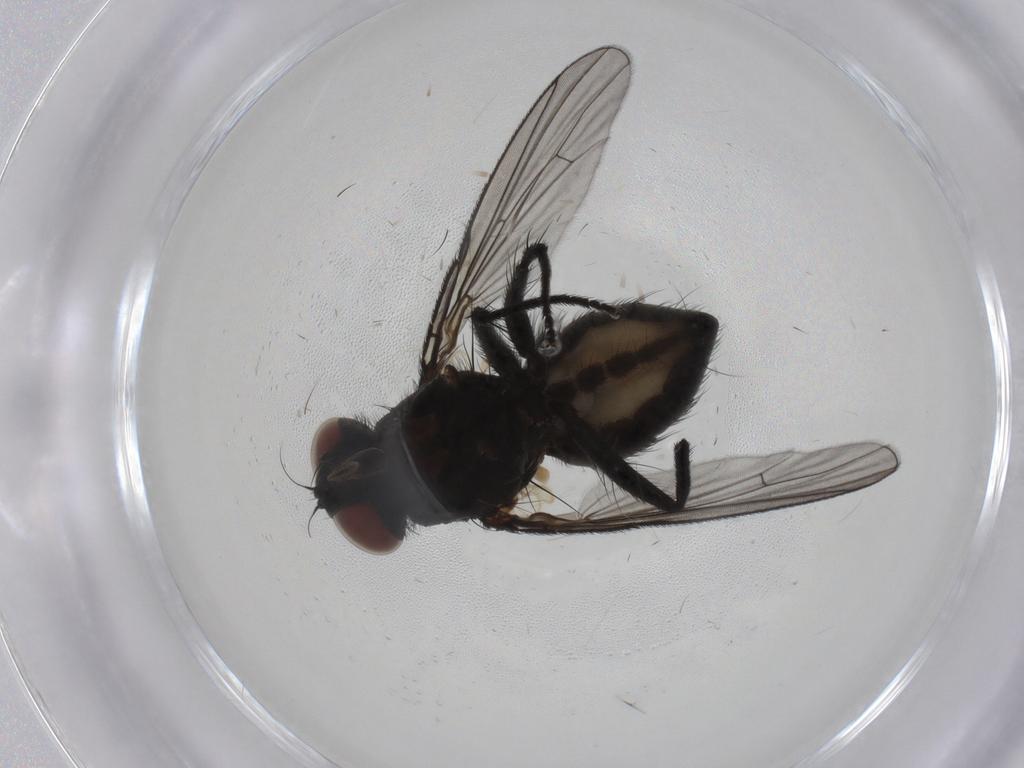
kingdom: Animalia
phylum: Arthropoda
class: Insecta
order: Diptera
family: Muscidae
